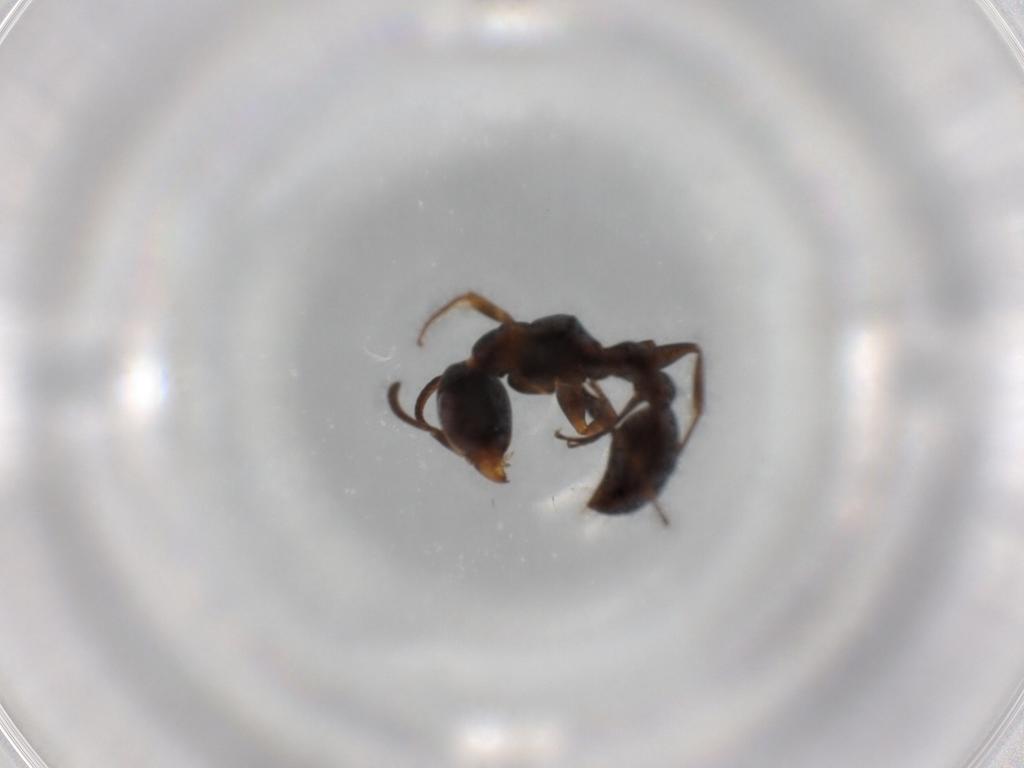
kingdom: Animalia
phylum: Arthropoda
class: Insecta
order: Hymenoptera
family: Formicidae
